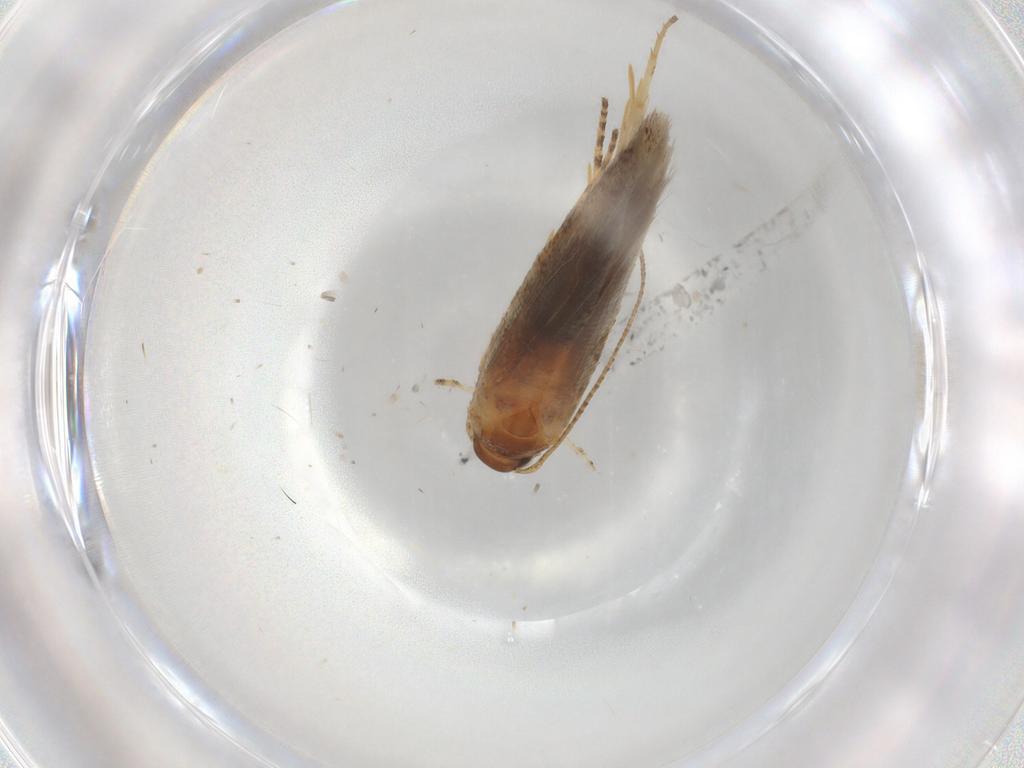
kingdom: Animalia
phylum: Arthropoda
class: Insecta
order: Lepidoptera
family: Gelechiidae
